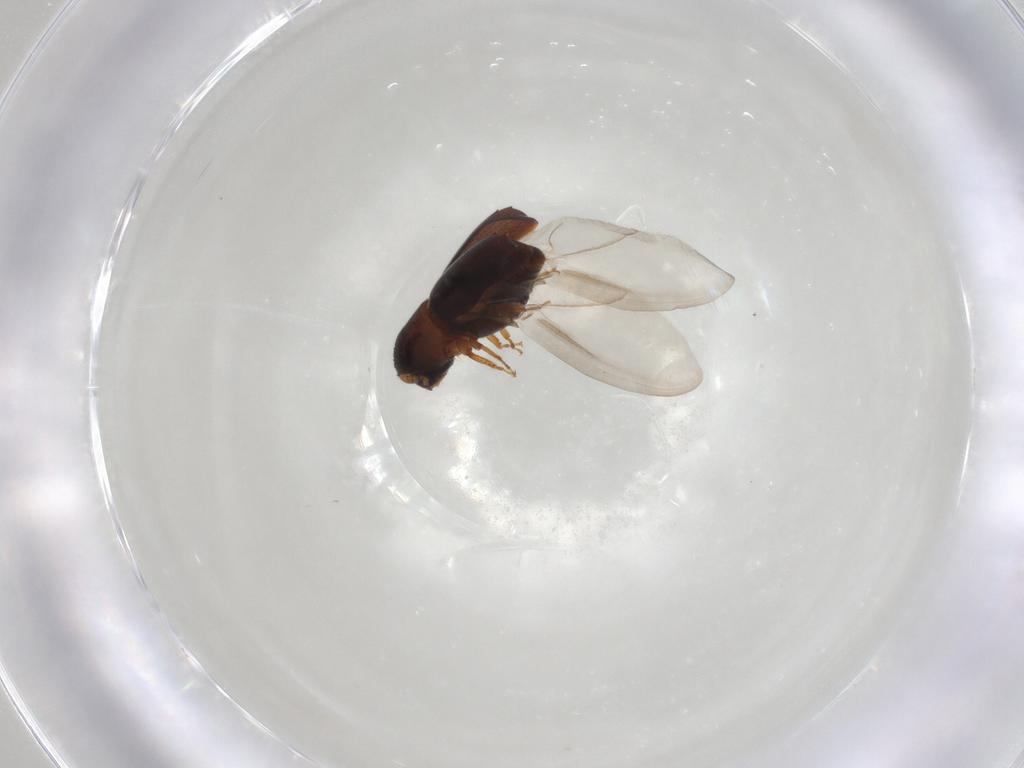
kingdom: Animalia
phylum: Arthropoda
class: Insecta
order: Coleoptera
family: Curculionidae
